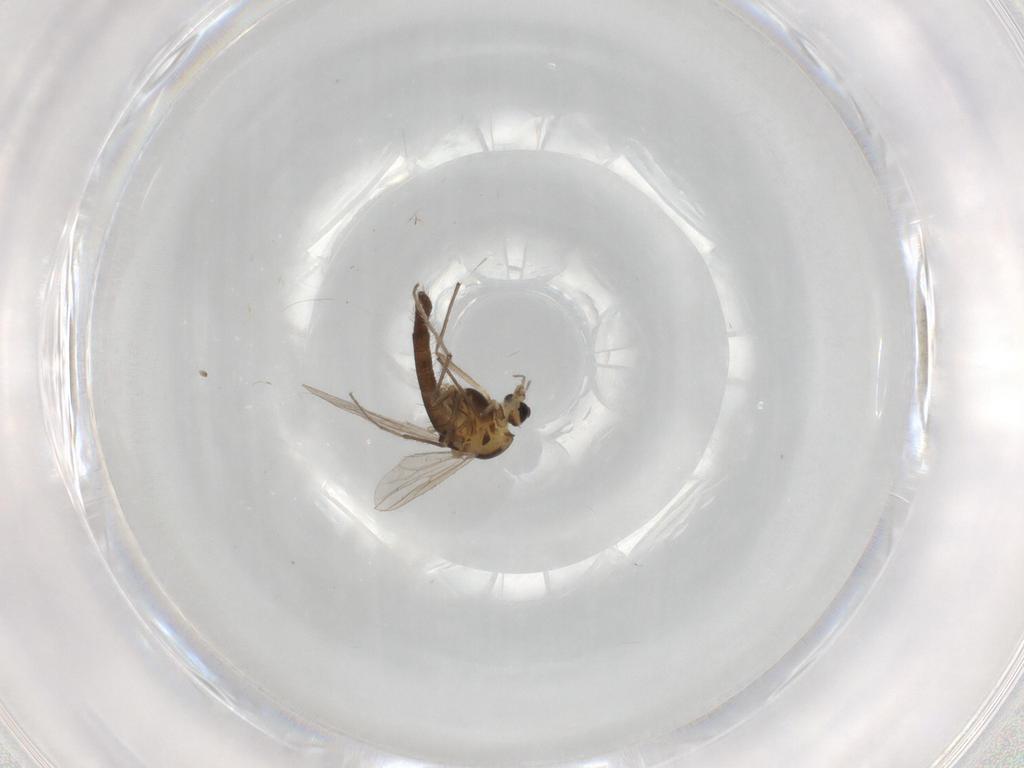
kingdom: Animalia
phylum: Arthropoda
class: Insecta
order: Diptera
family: Chironomidae
